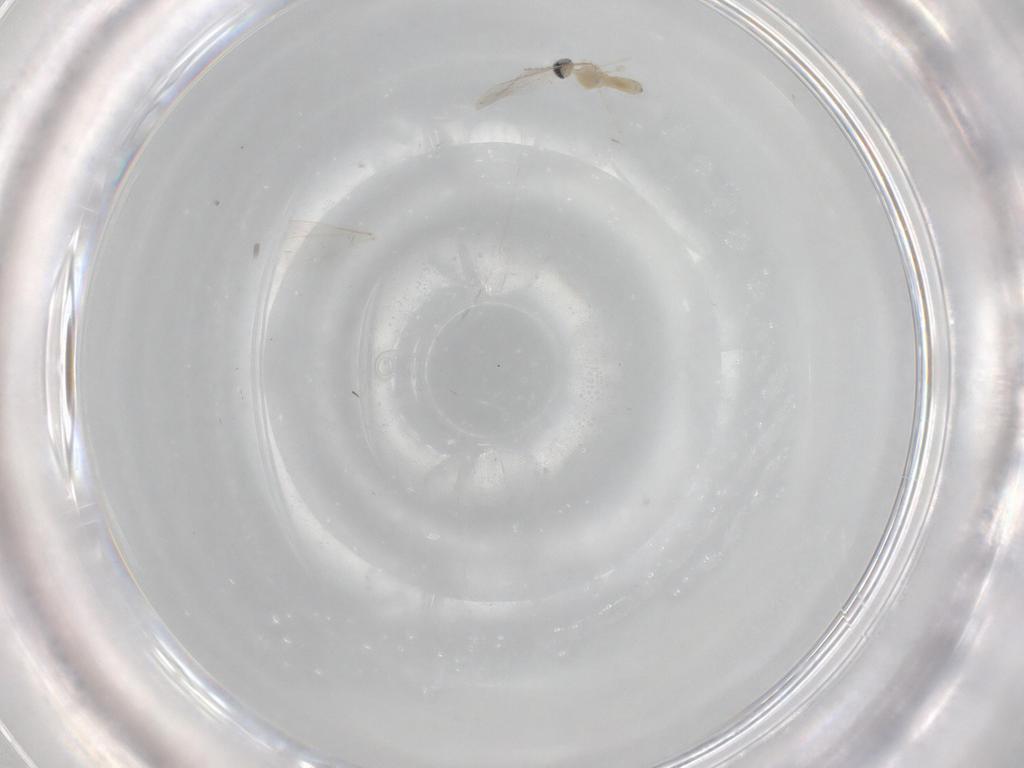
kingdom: Animalia
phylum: Arthropoda
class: Insecta
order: Diptera
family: Cecidomyiidae
